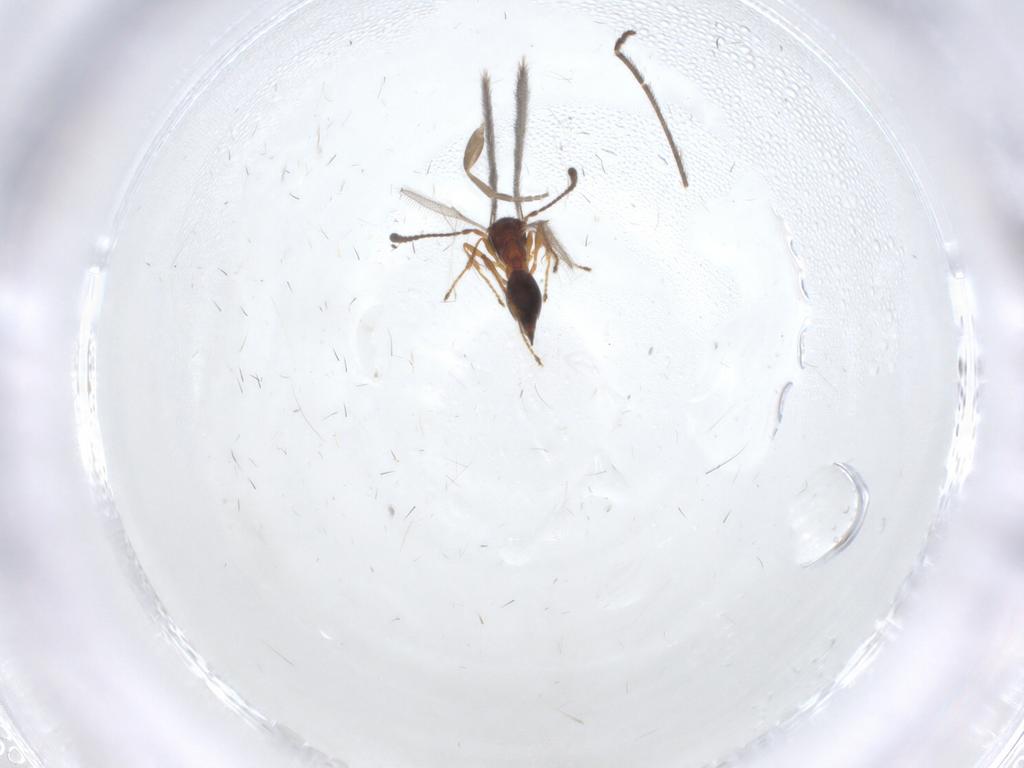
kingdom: Animalia
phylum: Arthropoda
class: Insecta
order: Hymenoptera
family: Diapriidae
